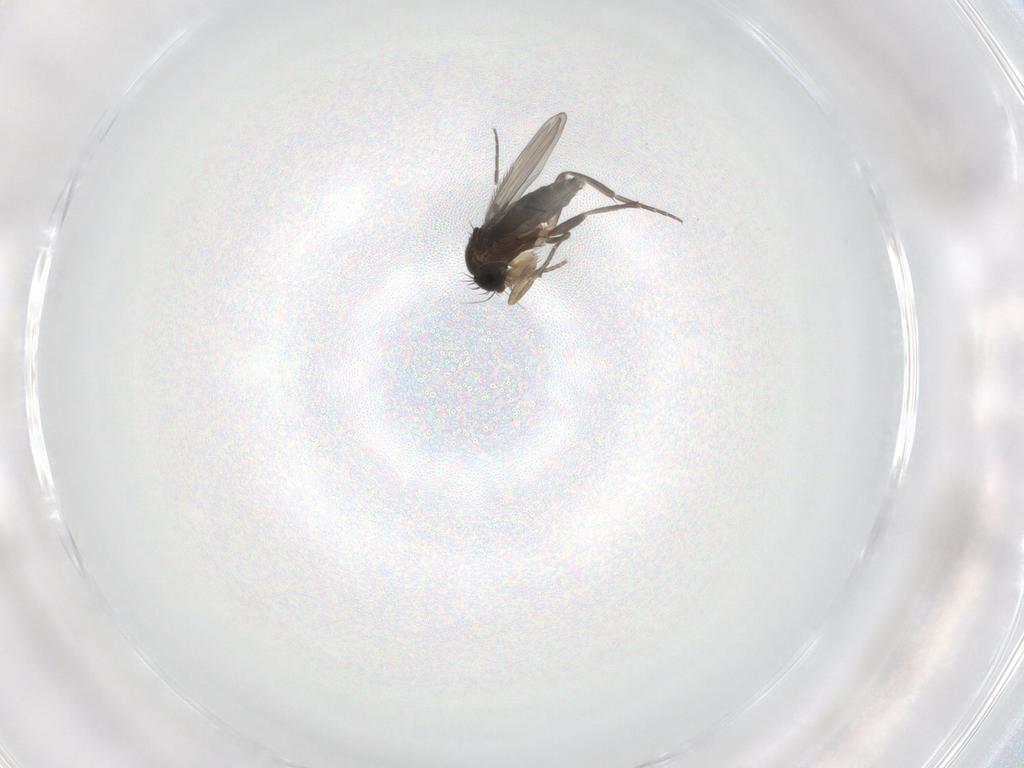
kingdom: Animalia
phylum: Arthropoda
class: Insecta
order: Diptera
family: Phoridae
